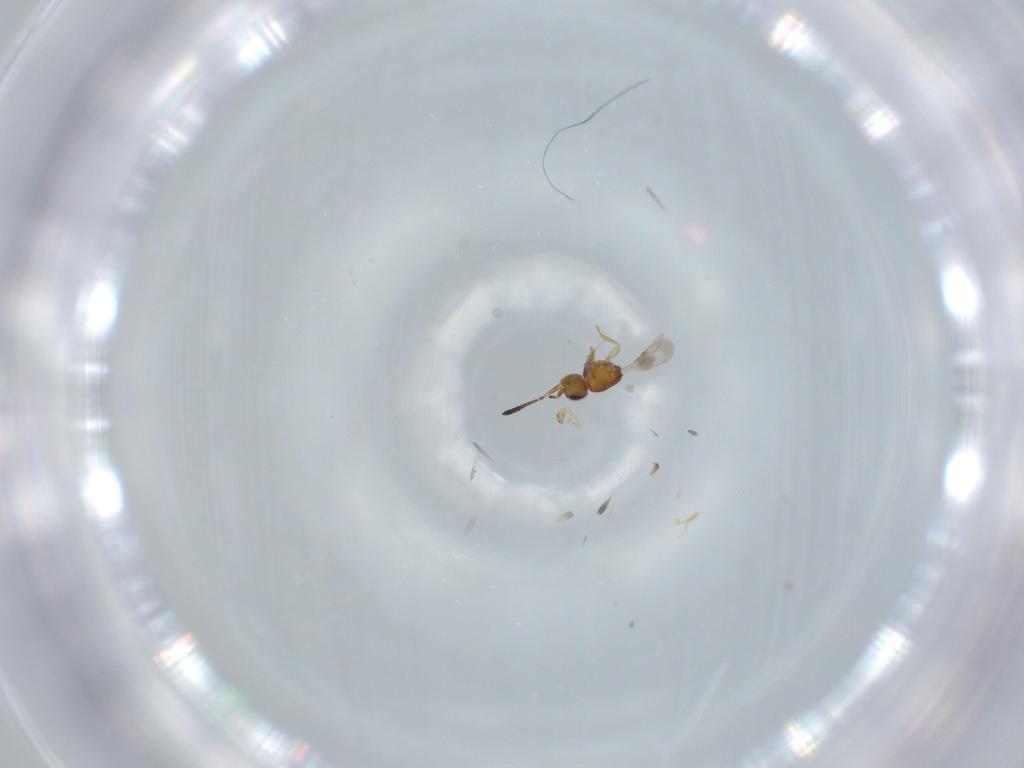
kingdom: Animalia
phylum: Arthropoda
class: Insecta
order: Hymenoptera
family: Bethylidae
